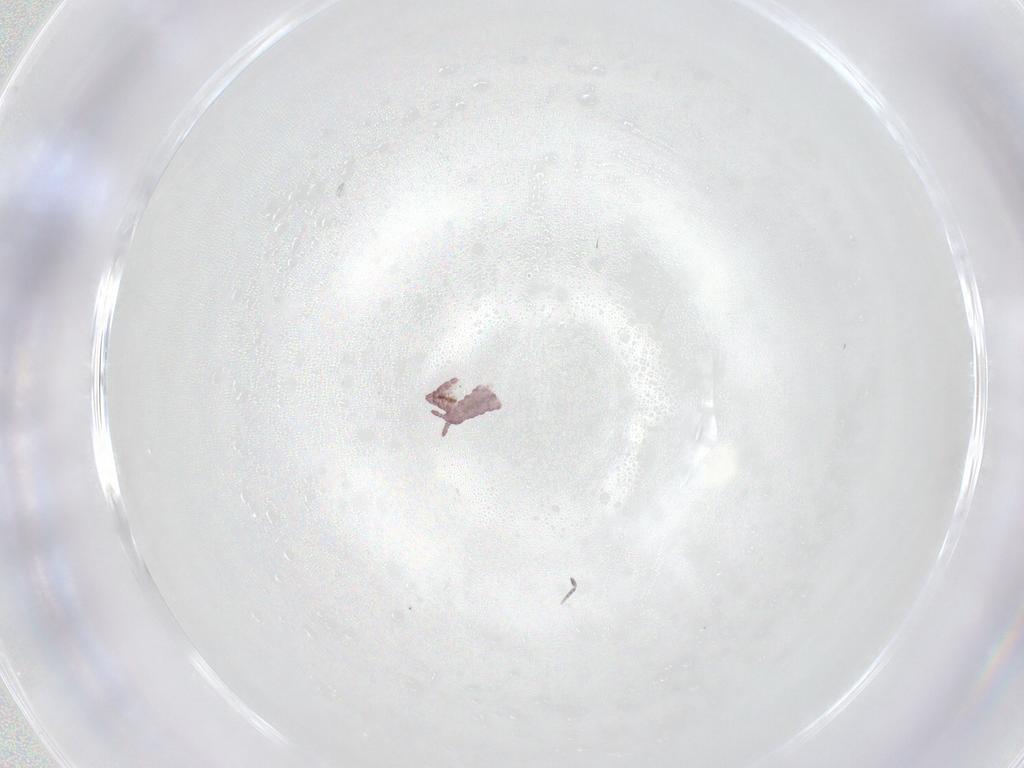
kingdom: Animalia
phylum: Arthropoda
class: Collembola
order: Poduromorpha
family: Hypogastruridae
